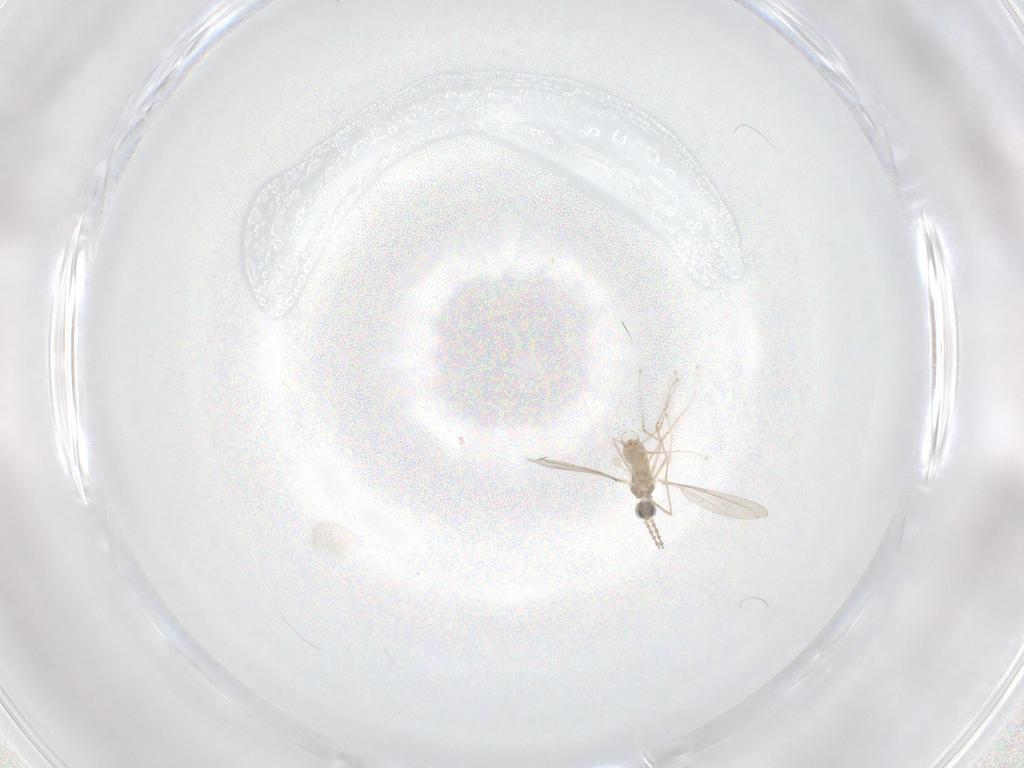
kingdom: Animalia
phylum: Arthropoda
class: Insecta
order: Diptera
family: Cecidomyiidae
